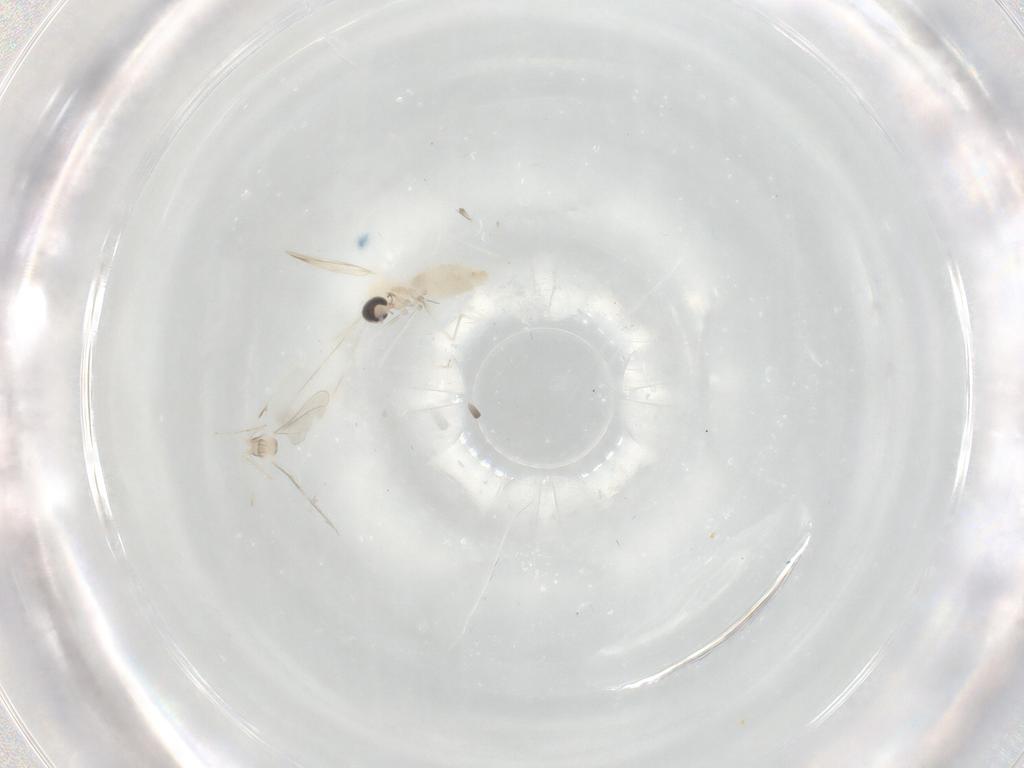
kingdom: Animalia
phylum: Arthropoda
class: Insecta
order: Diptera
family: Cecidomyiidae
